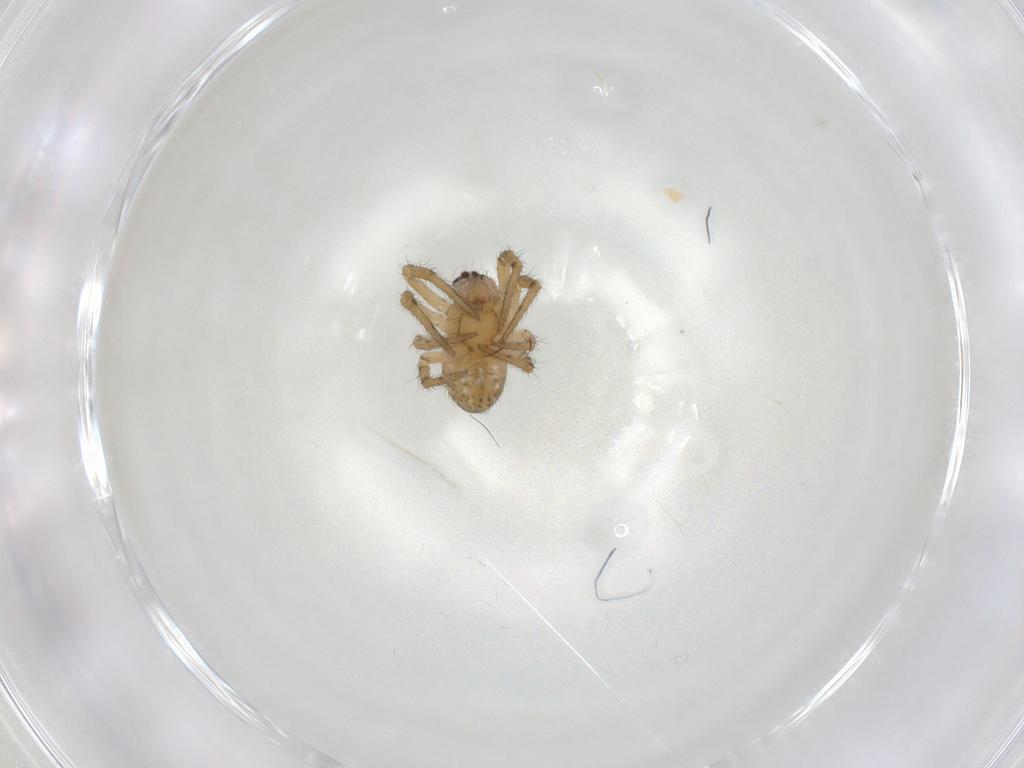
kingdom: Animalia
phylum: Arthropoda
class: Arachnida
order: Araneae
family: Araneidae
